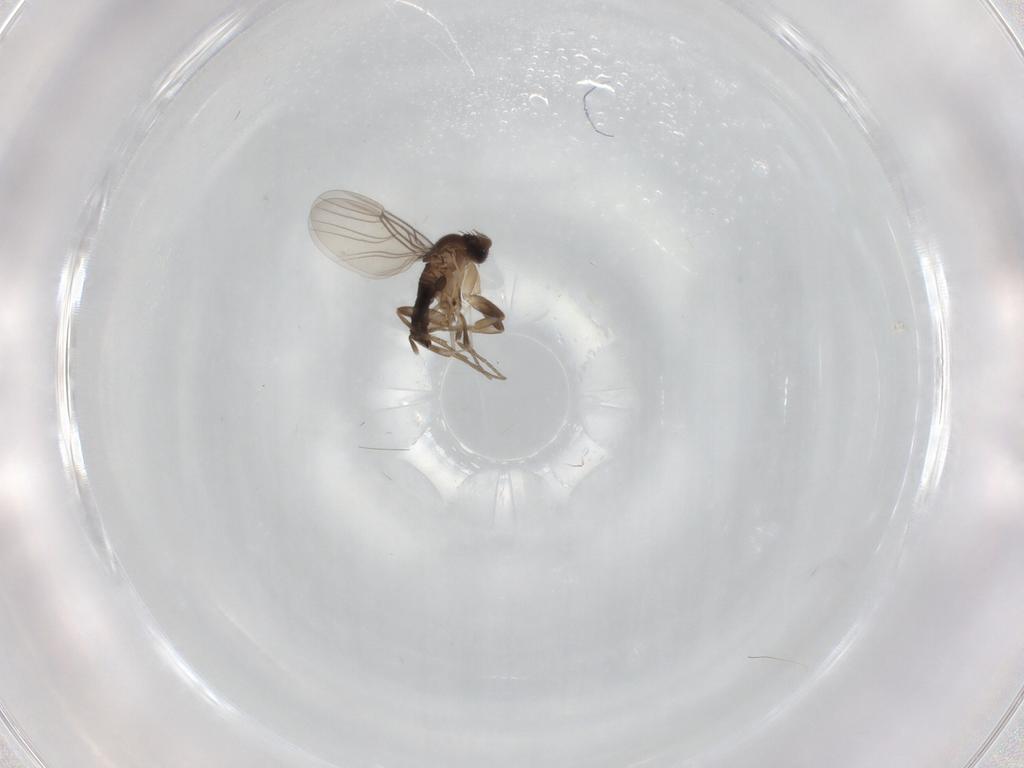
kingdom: Animalia
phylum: Arthropoda
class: Insecta
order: Diptera
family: Phoridae
